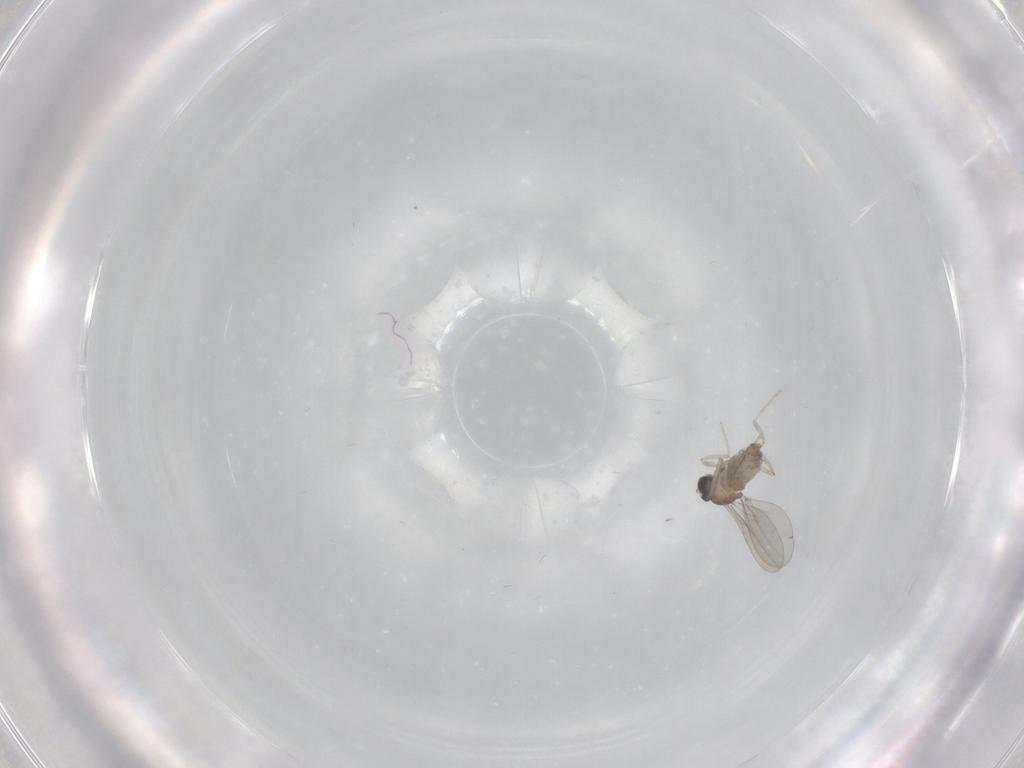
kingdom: Animalia
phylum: Arthropoda
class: Insecta
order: Diptera
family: Cecidomyiidae
